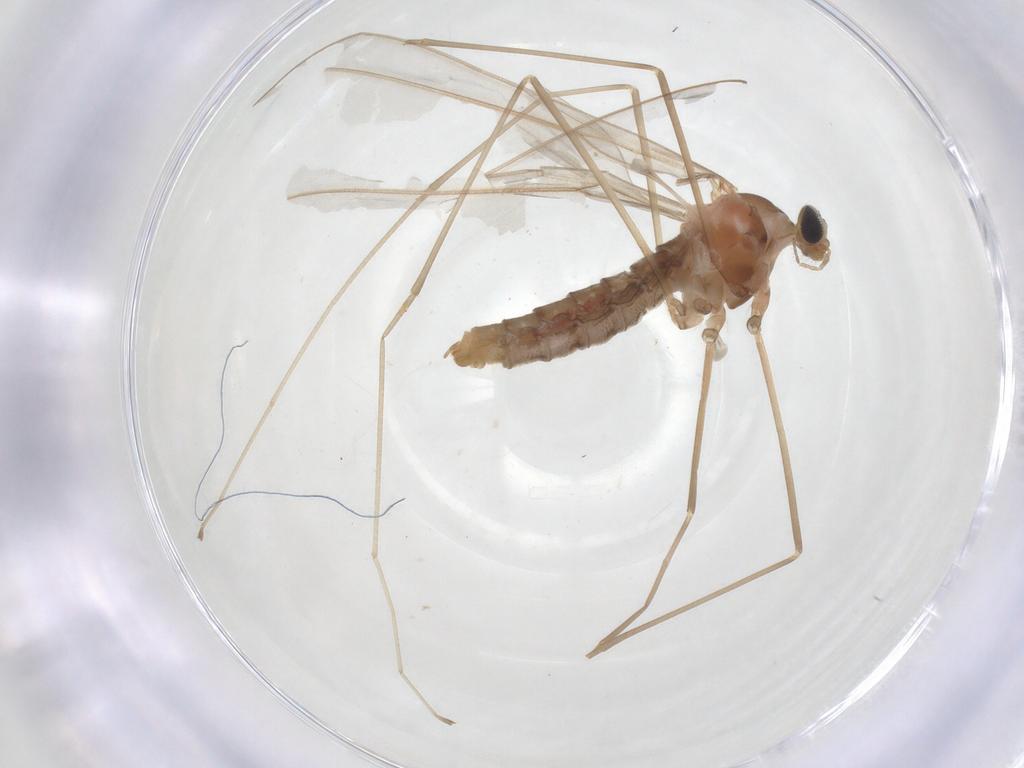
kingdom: Animalia
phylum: Arthropoda
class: Insecta
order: Diptera
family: Cecidomyiidae
